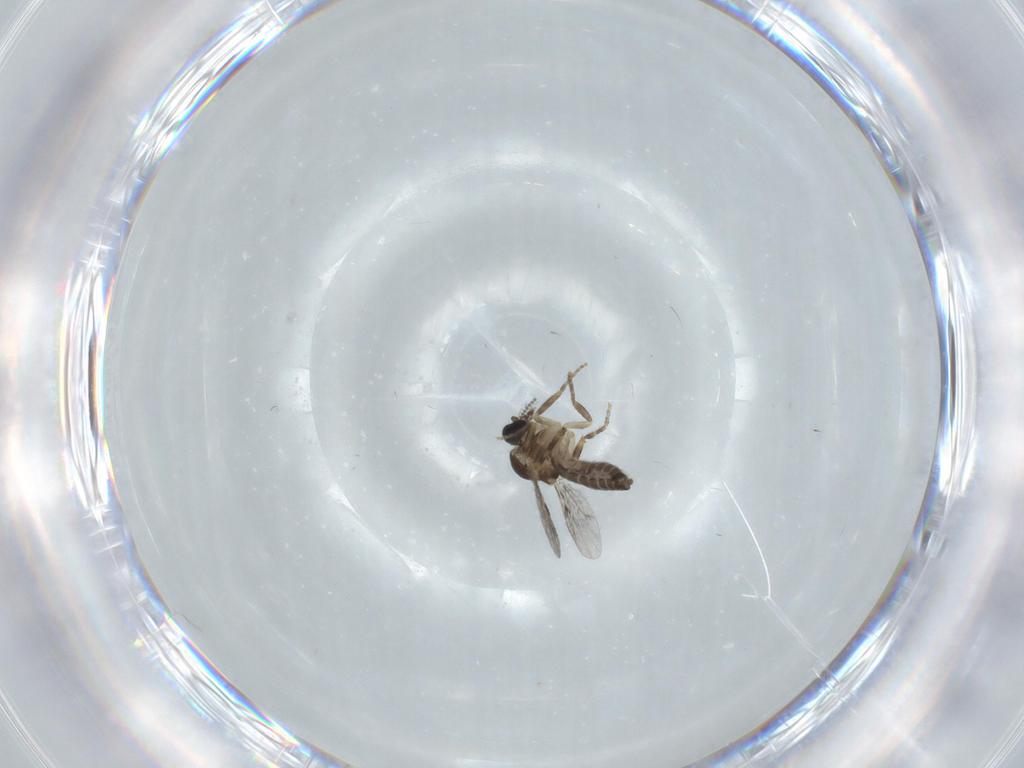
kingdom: Animalia
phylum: Arthropoda
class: Insecta
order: Diptera
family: Ceratopogonidae
